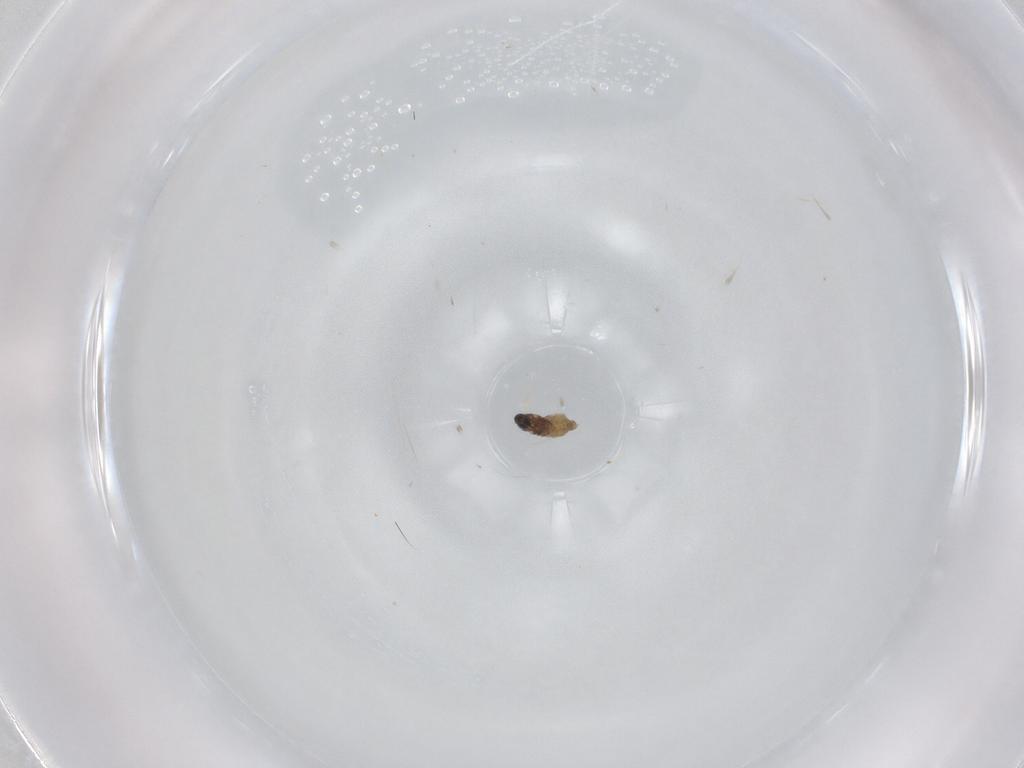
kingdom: Animalia
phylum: Arthropoda
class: Insecta
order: Diptera
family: Cecidomyiidae
